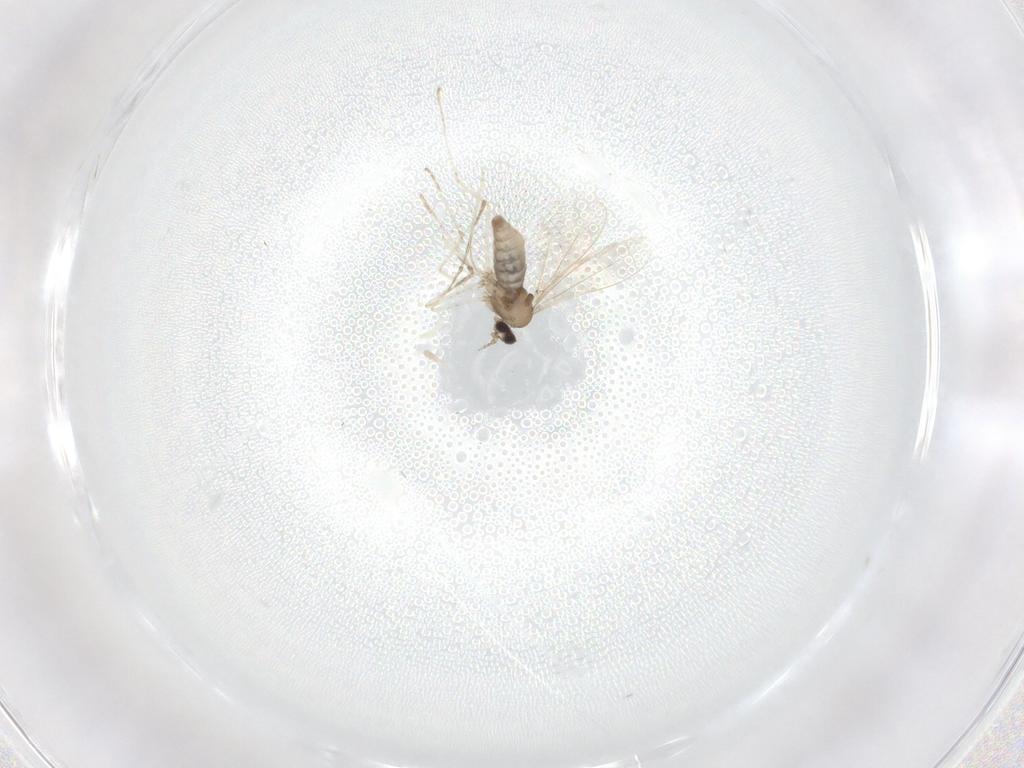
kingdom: Animalia
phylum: Arthropoda
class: Insecta
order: Diptera
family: Cecidomyiidae
